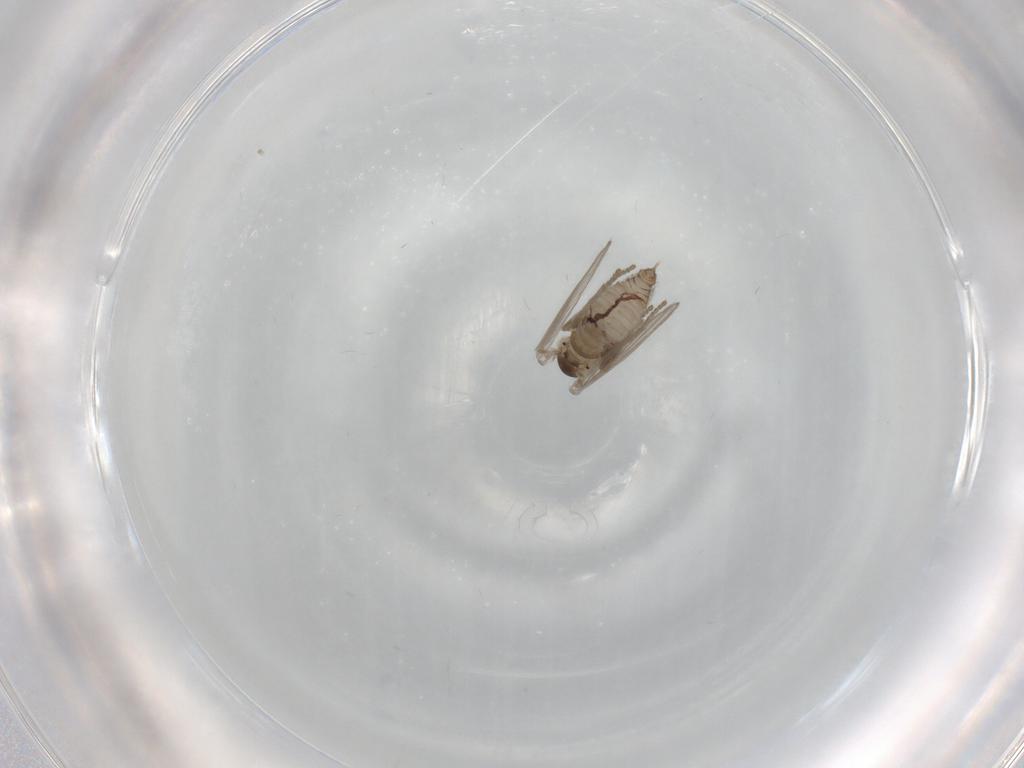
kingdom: Animalia
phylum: Arthropoda
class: Insecta
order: Diptera
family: Psychodidae
